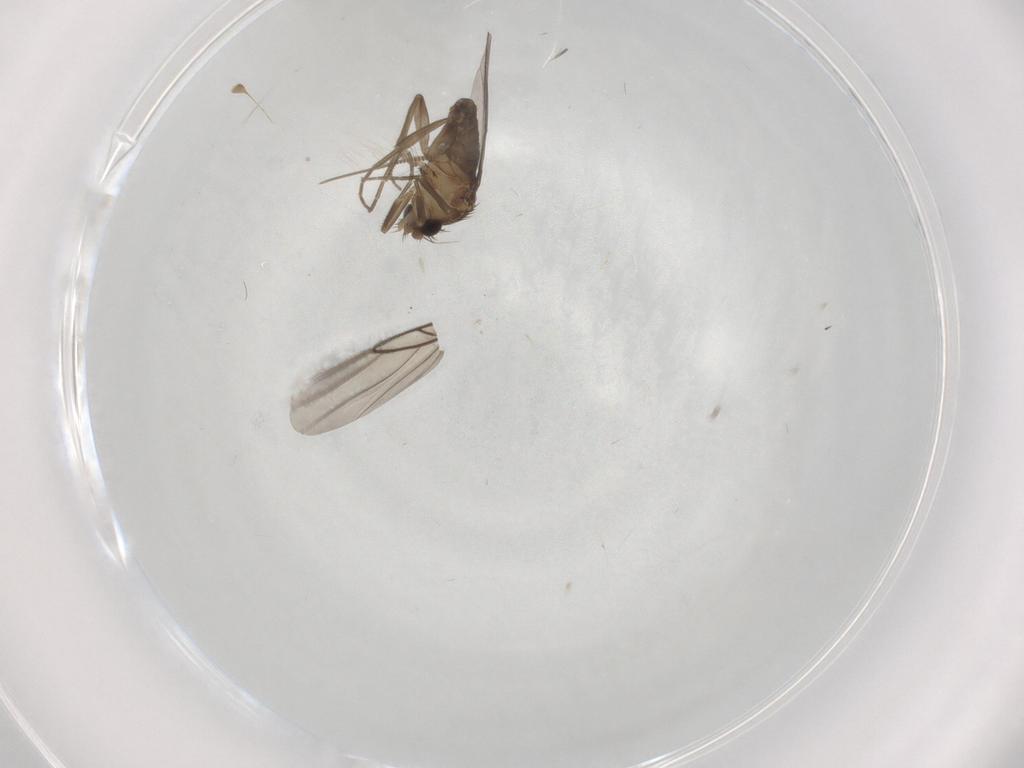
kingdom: Animalia
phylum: Arthropoda
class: Insecta
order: Diptera
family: Phoridae
